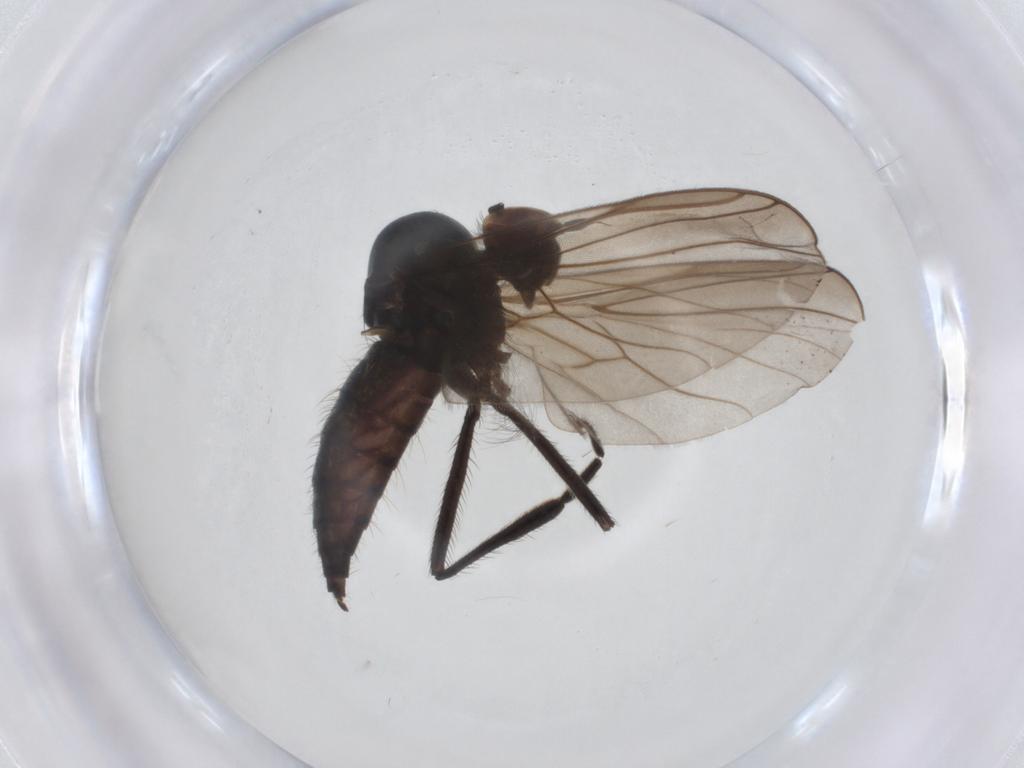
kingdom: Animalia
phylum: Arthropoda
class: Insecta
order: Diptera
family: Hybotidae
